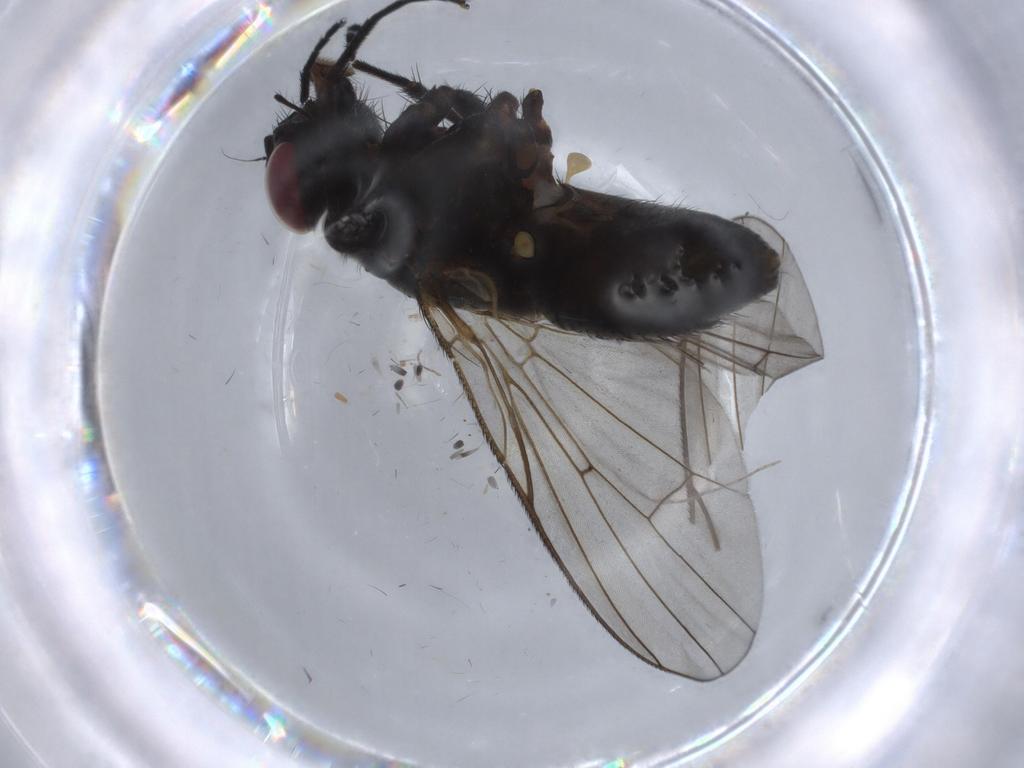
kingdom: Animalia
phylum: Arthropoda
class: Insecta
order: Diptera
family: Muscidae
